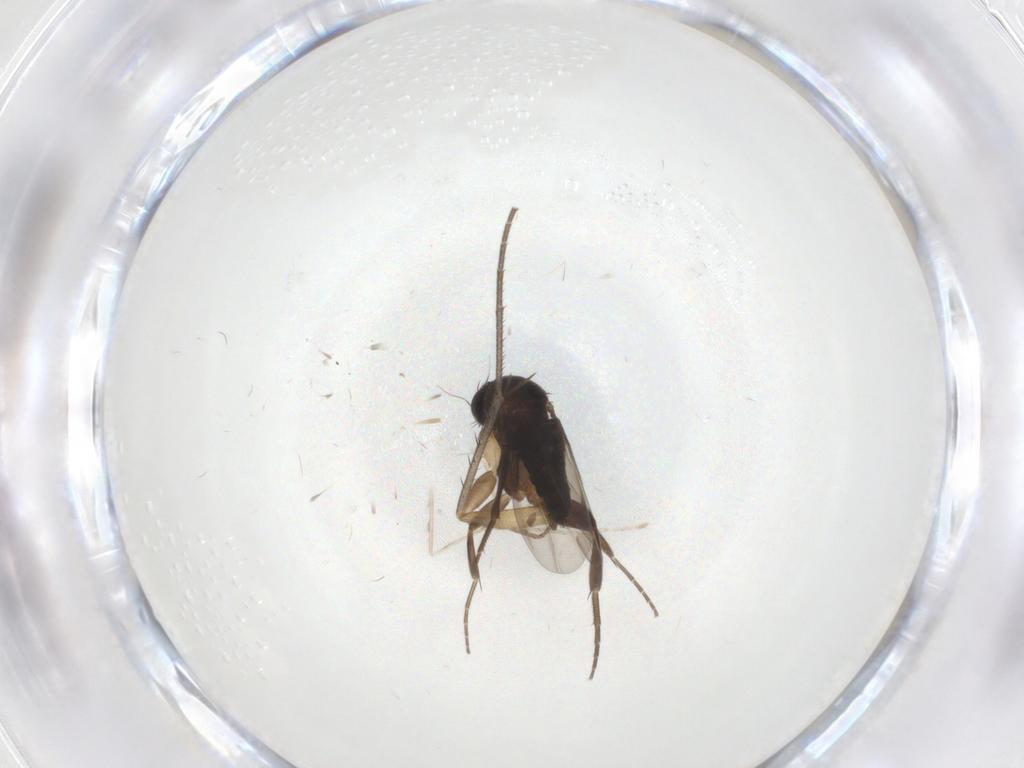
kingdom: Animalia
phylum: Arthropoda
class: Insecta
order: Diptera
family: Phoridae
